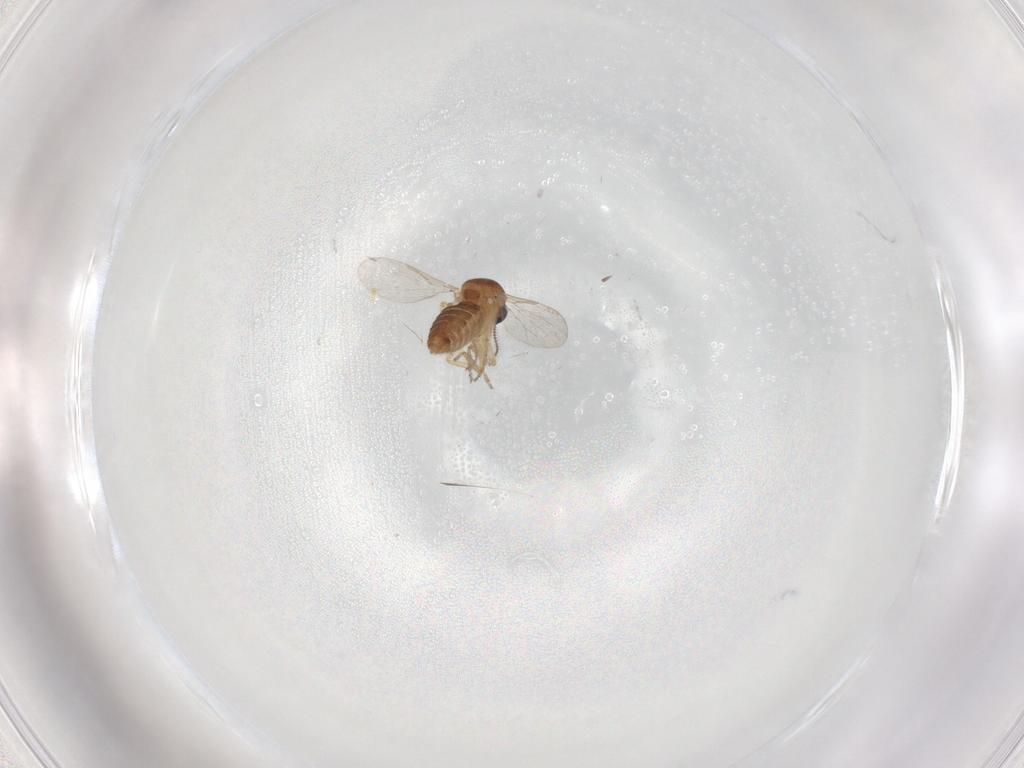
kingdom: Animalia
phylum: Arthropoda
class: Insecta
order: Diptera
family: Ceratopogonidae
